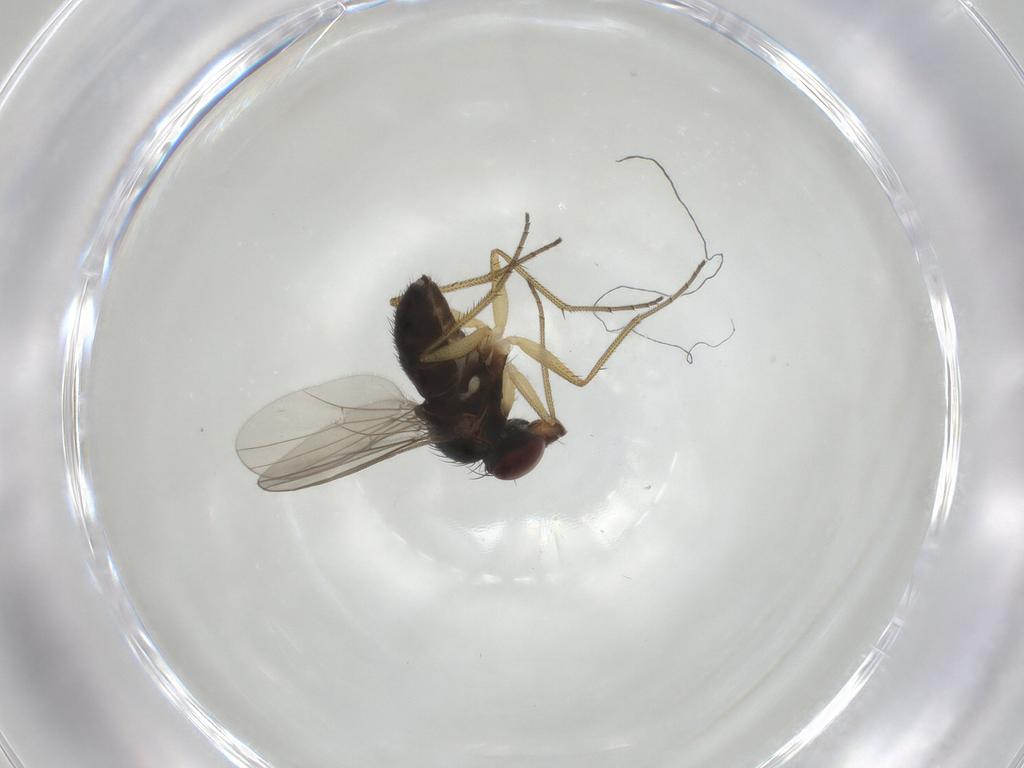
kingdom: Animalia
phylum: Arthropoda
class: Insecta
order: Diptera
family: Dolichopodidae
